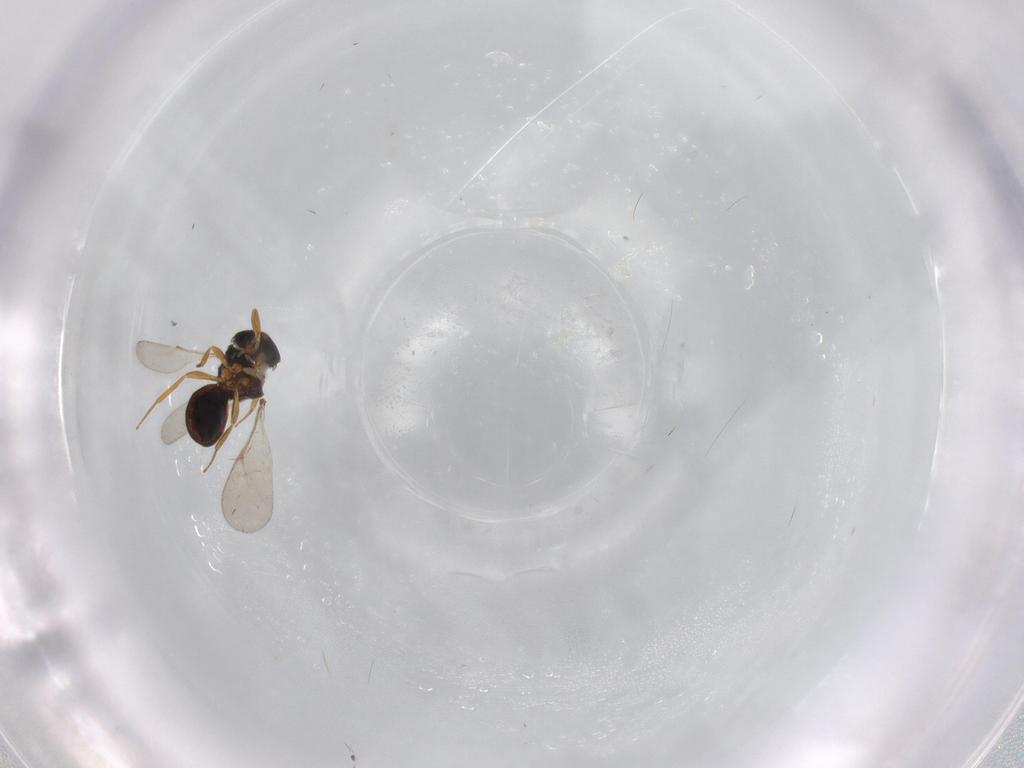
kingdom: Animalia
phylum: Arthropoda
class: Insecta
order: Hymenoptera
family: Scelionidae
